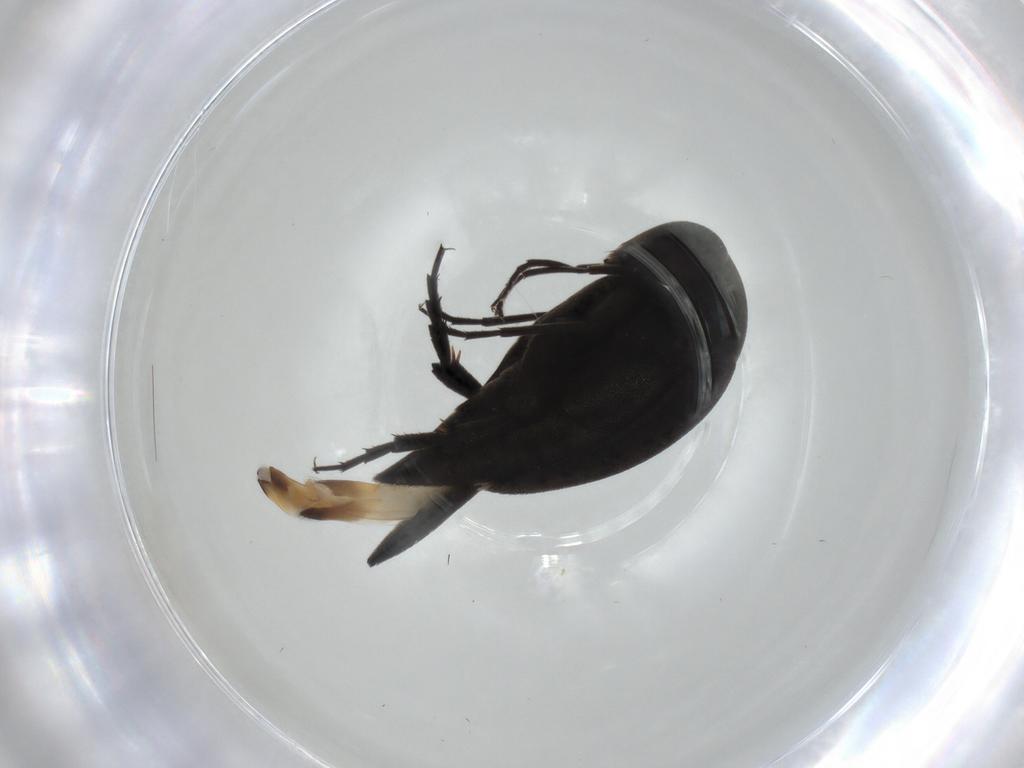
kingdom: Animalia
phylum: Arthropoda
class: Insecta
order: Coleoptera
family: Mordellidae
